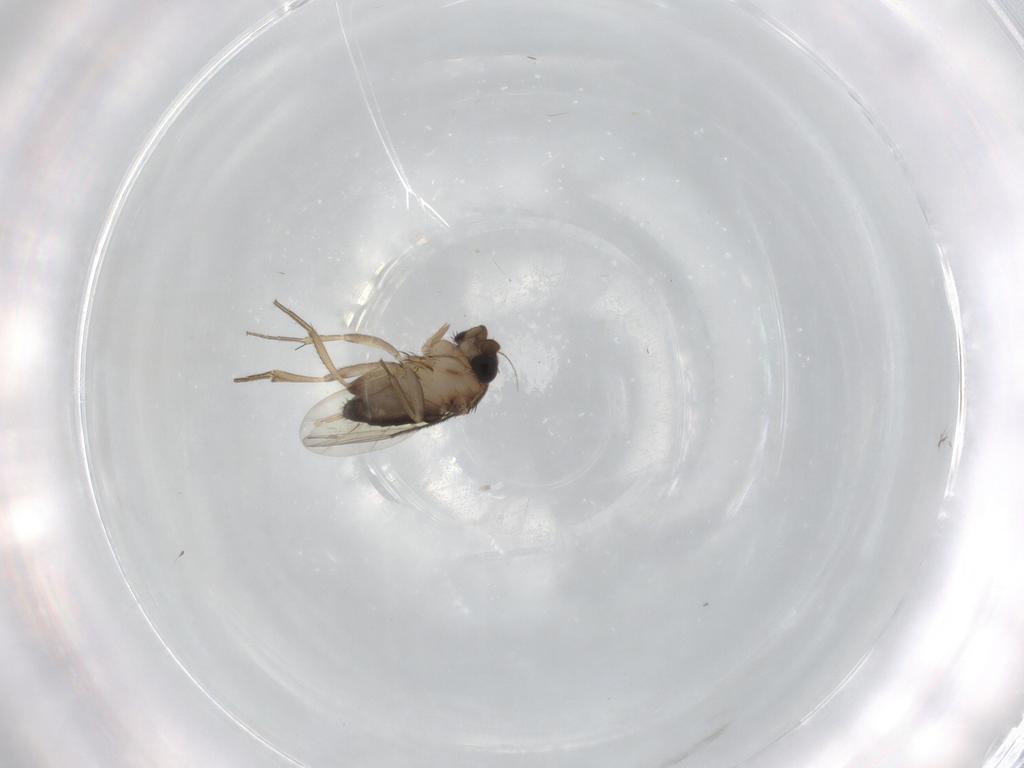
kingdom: Animalia
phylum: Arthropoda
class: Insecta
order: Diptera
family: Phoridae
